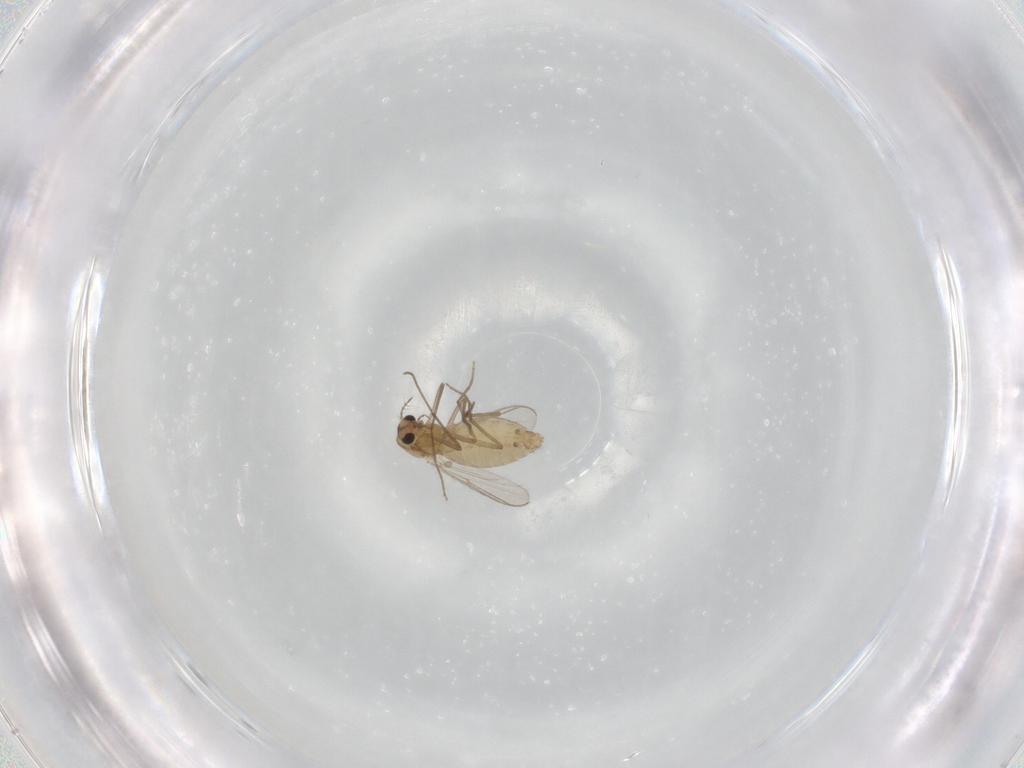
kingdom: Animalia
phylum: Arthropoda
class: Insecta
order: Diptera
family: Chironomidae
